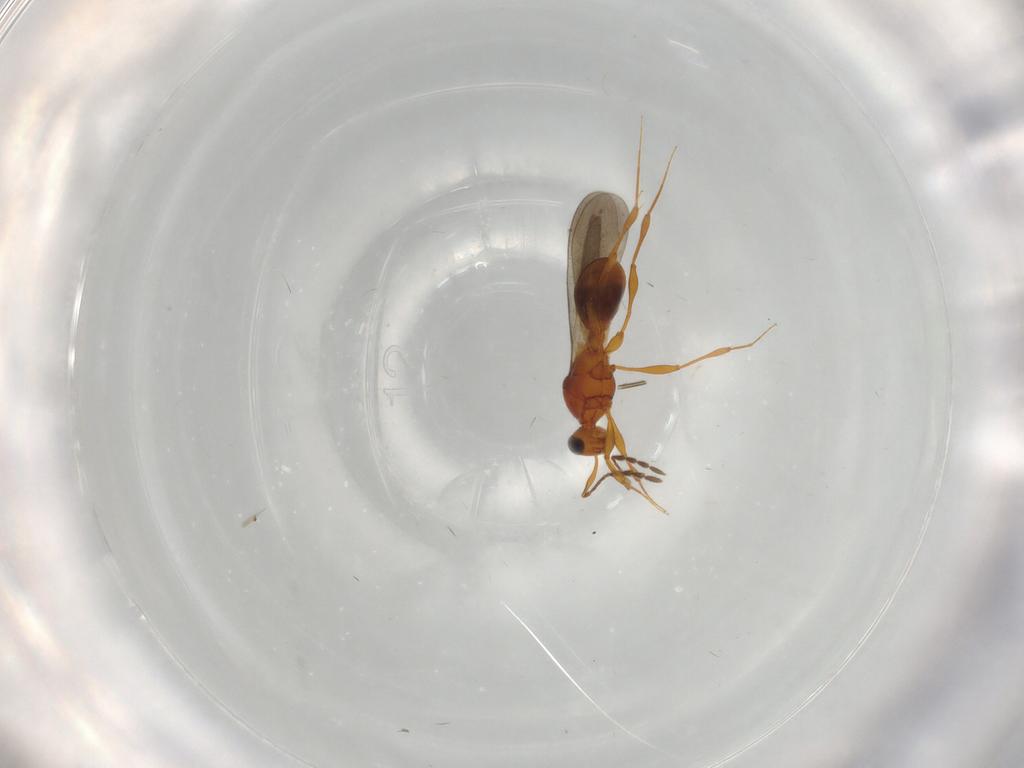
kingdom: Animalia
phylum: Arthropoda
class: Insecta
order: Hymenoptera
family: Platygastridae
